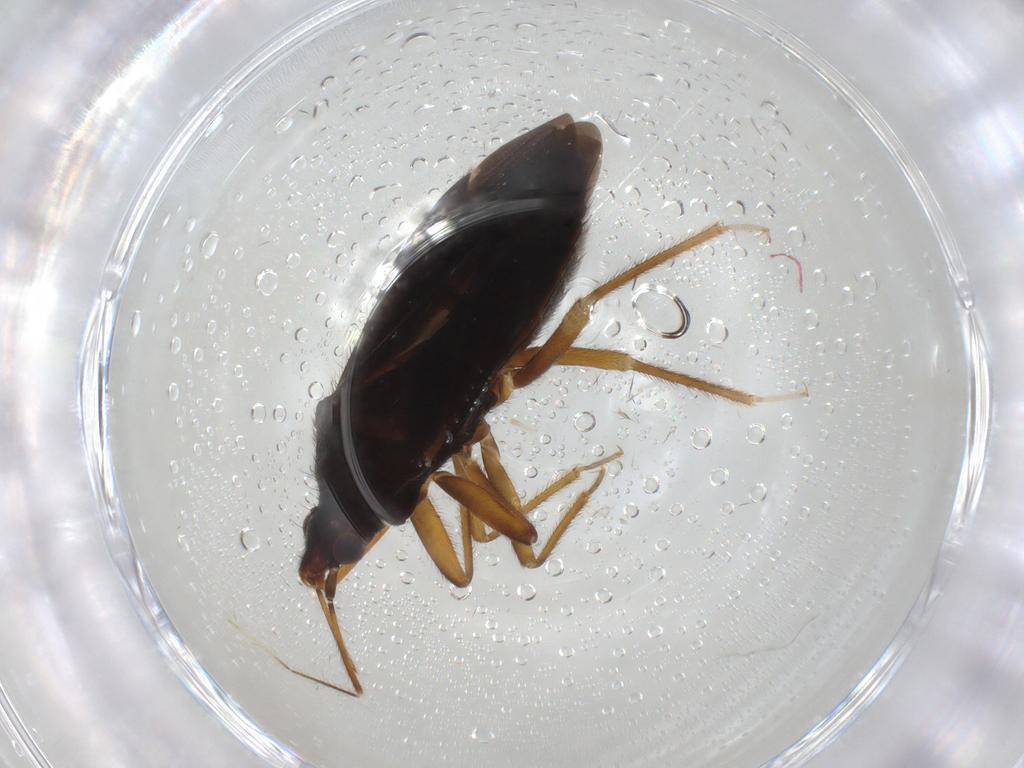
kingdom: Animalia
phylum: Arthropoda
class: Insecta
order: Hemiptera
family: Anthocoridae
